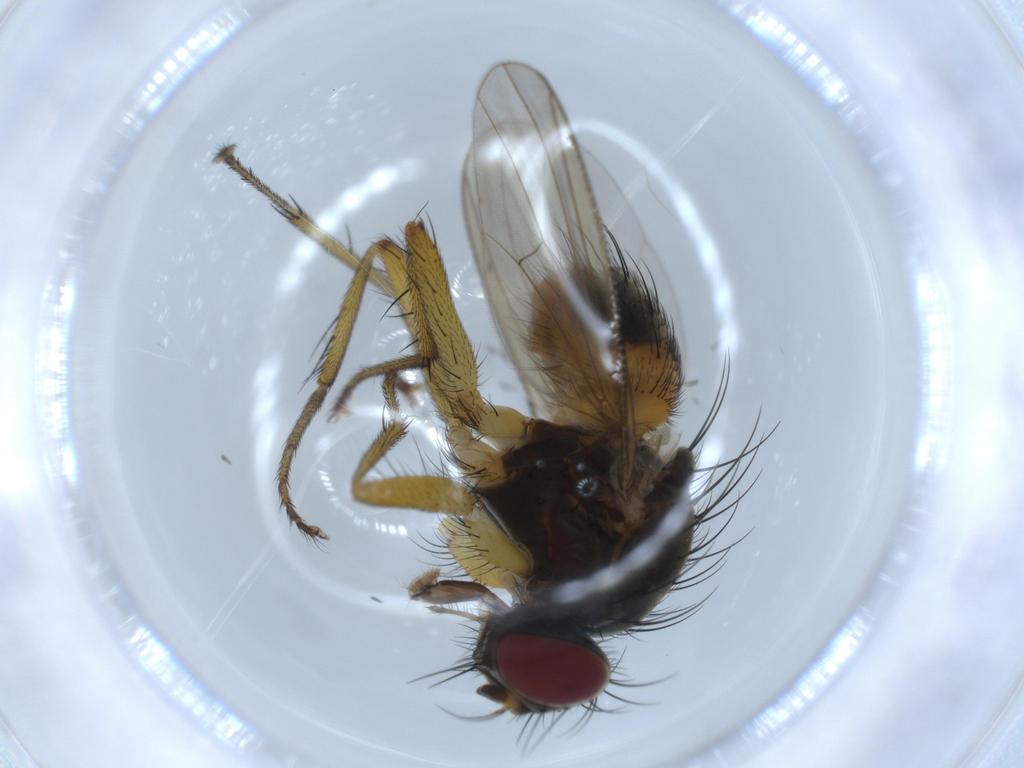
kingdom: Animalia
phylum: Arthropoda
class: Insecta
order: Diptera
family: Muscidae
